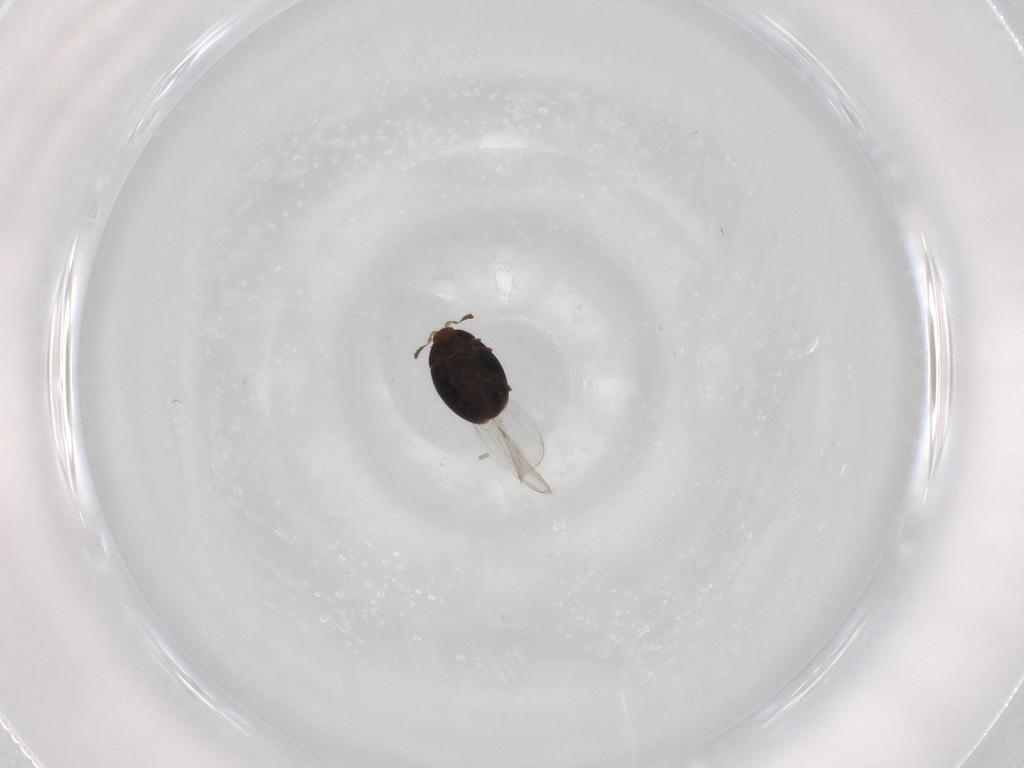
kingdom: Animalia
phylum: Arthropoda
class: Insecta
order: Coleoptera
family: Corylophidae
